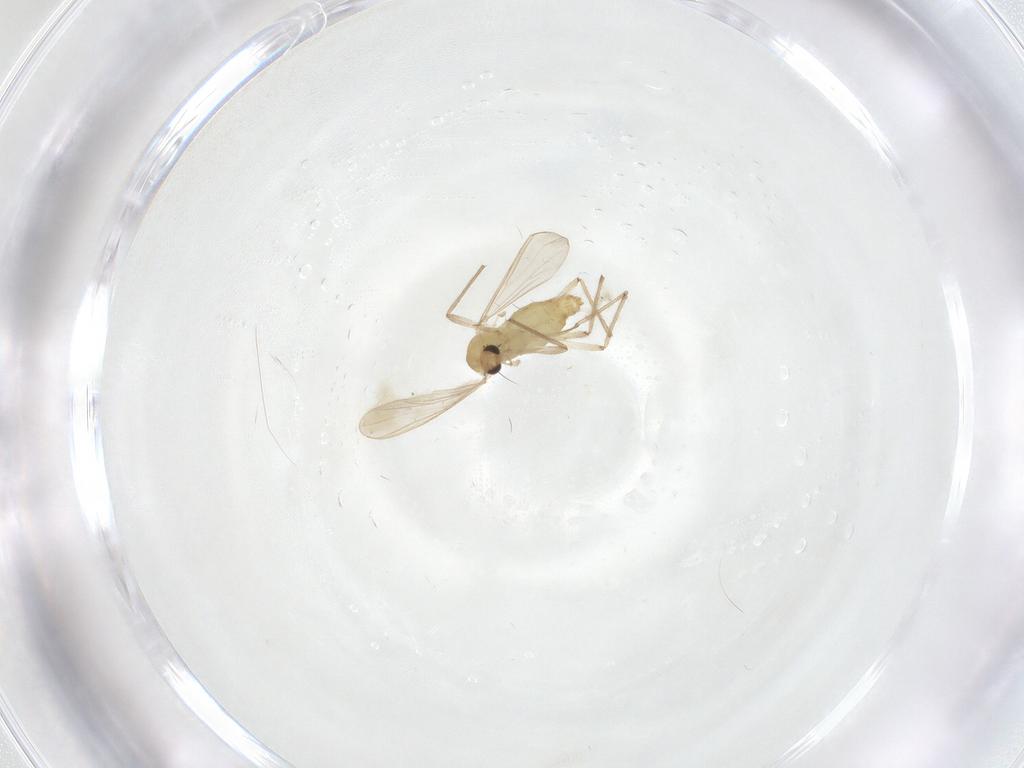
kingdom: Animalia
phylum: Arthropoda
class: Insecta
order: Diptera
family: Chironomidae
